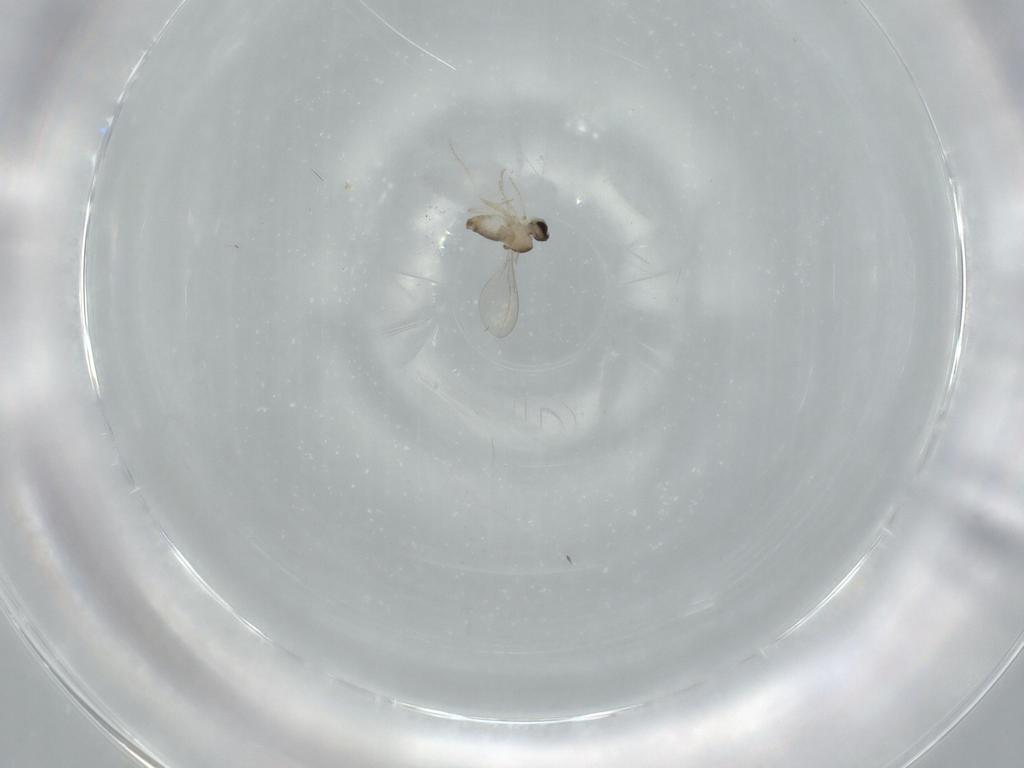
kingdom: Animalia
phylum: Arthropoda
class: Insecta
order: Diptera
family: Cecidomyiidae
